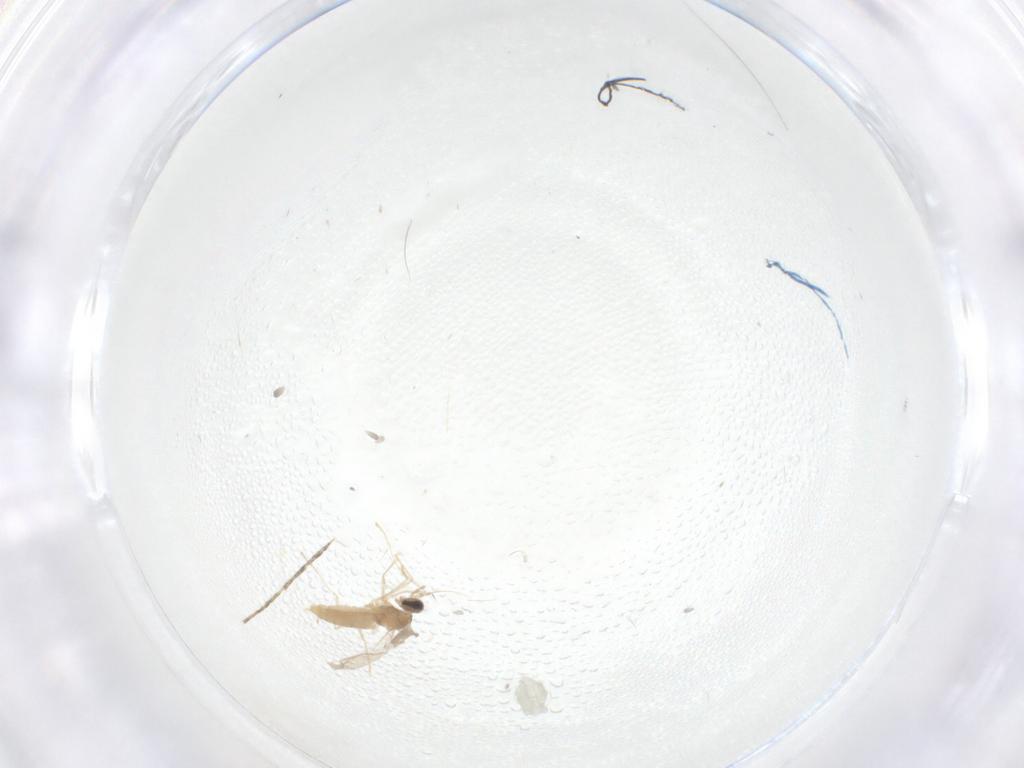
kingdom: Animalia
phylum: Arthropoda
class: Insecta
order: Diptera
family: Cecidomyiidae
